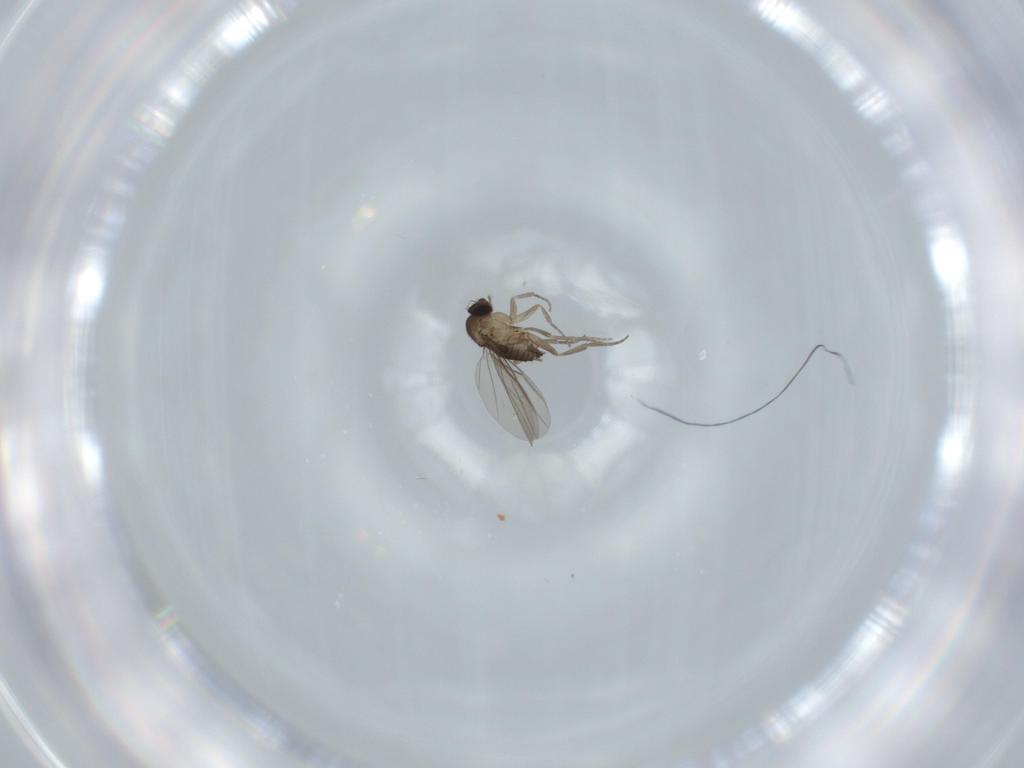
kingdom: Animalia
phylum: Arthropoda
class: Insecta
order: Diptera
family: Phoridae
